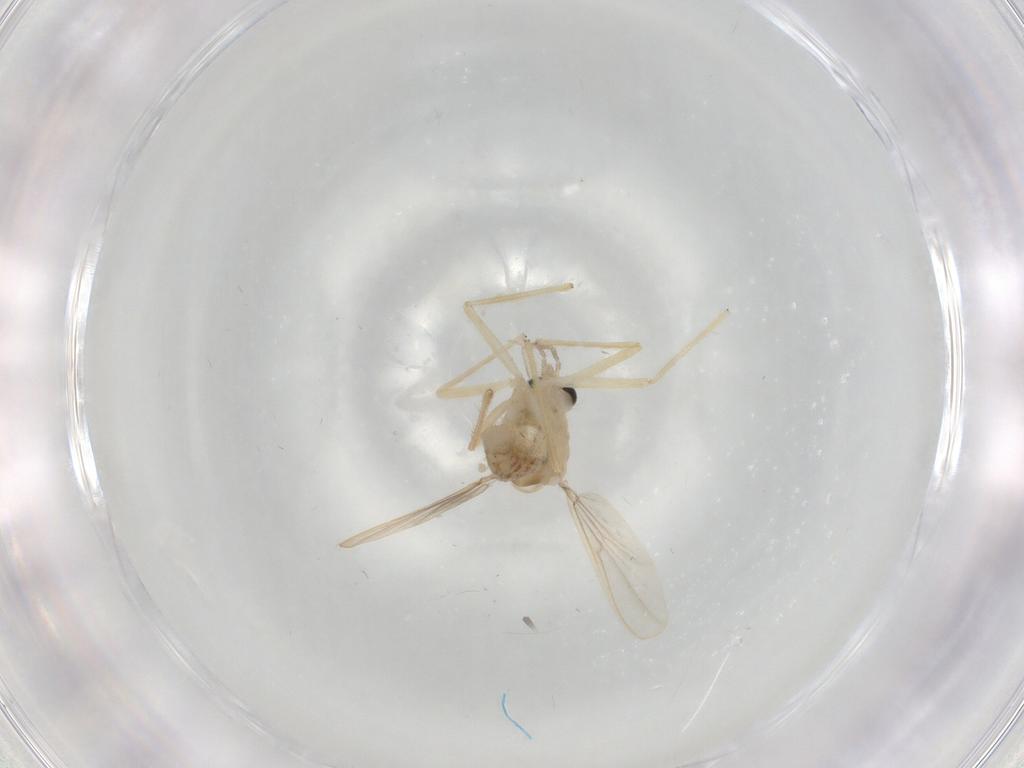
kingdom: Animalia
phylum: Arthropoda
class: Insecta
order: Diptera
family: Chironomidae
